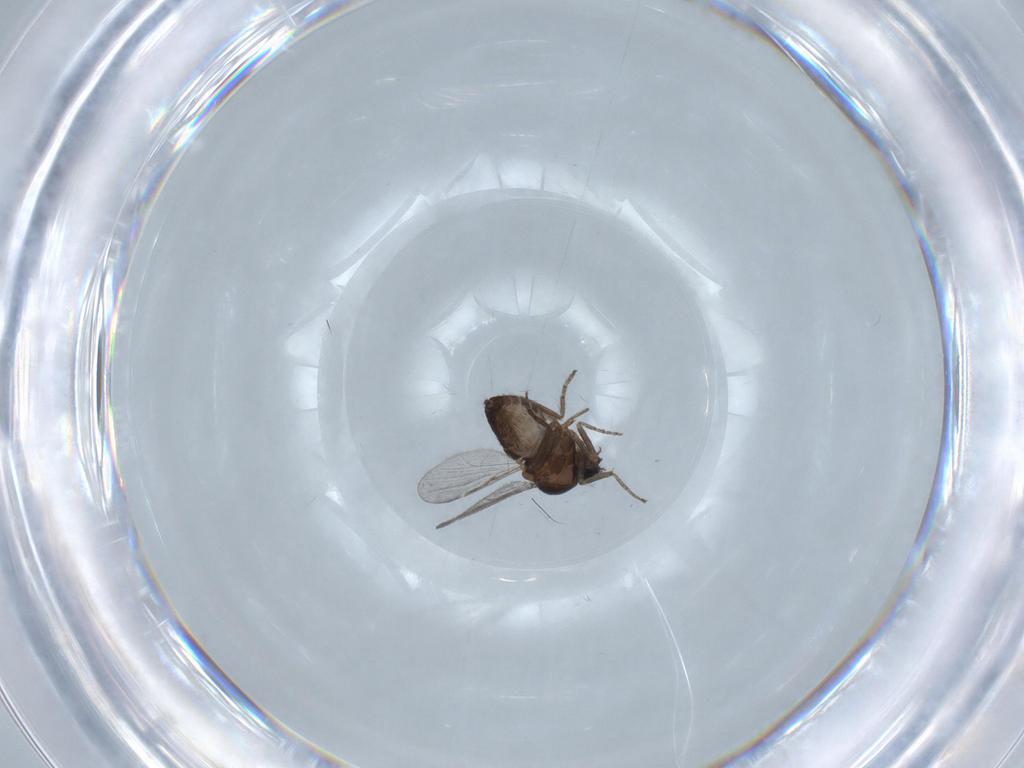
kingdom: Animalia
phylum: Arthropoda
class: Insecta
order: Diptera
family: Ceratopogonidae
